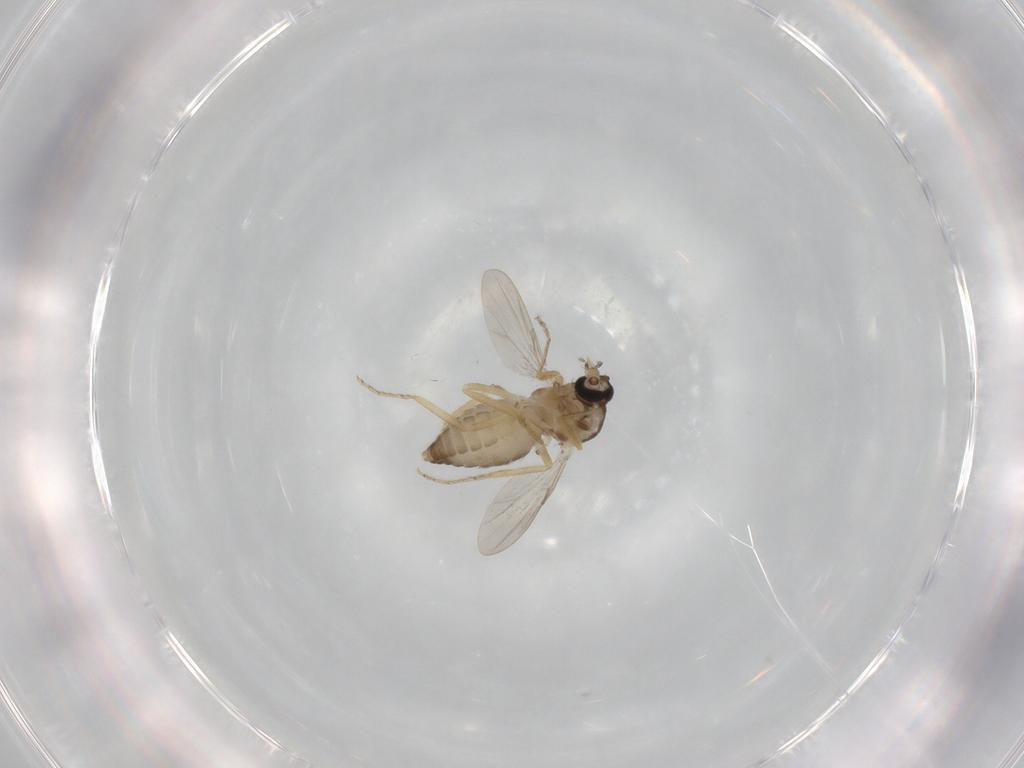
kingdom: Animalia
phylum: Arthropoda
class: Insecta
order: Diptera
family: Ceratopogonidae
